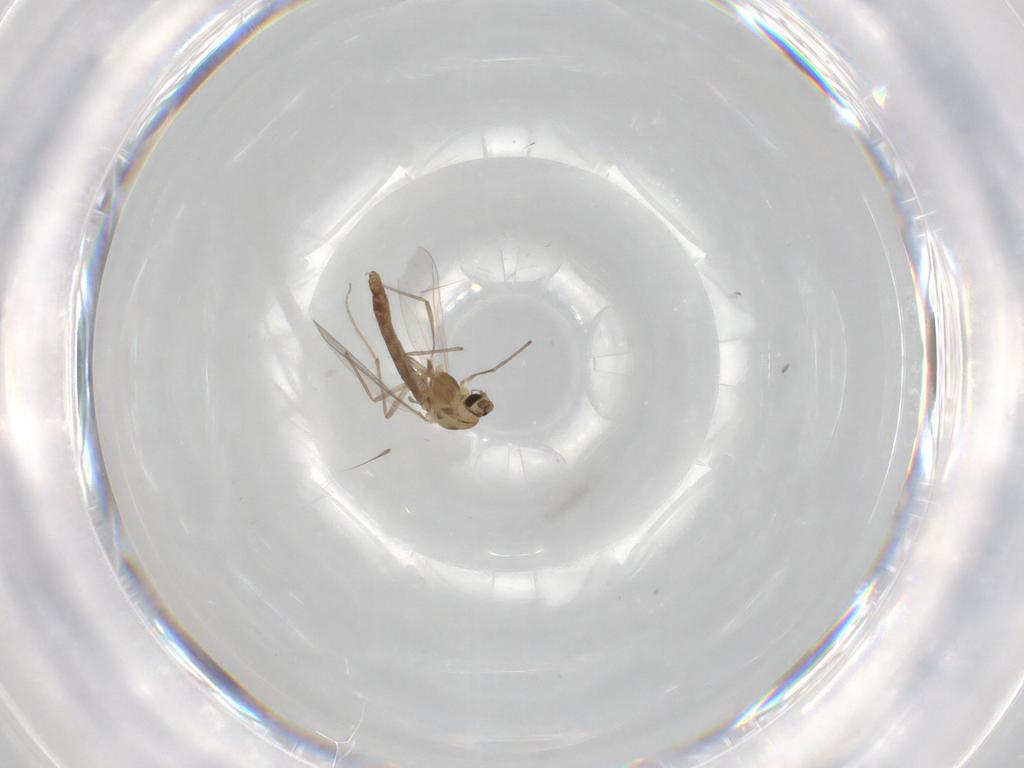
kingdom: Animalia
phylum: Arthropoda
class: Insecta
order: Diptera
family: Chironomidae
